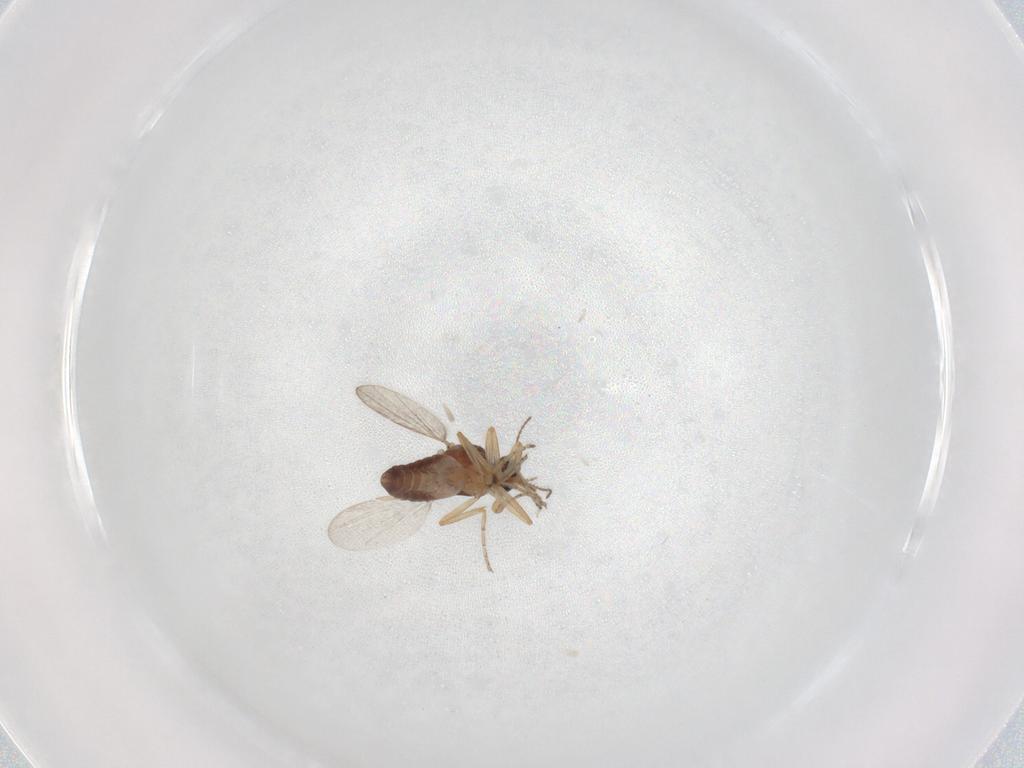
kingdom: Animalia
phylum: Arthropoda
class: Insecta
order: Diptera
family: Ceratopogonidae
